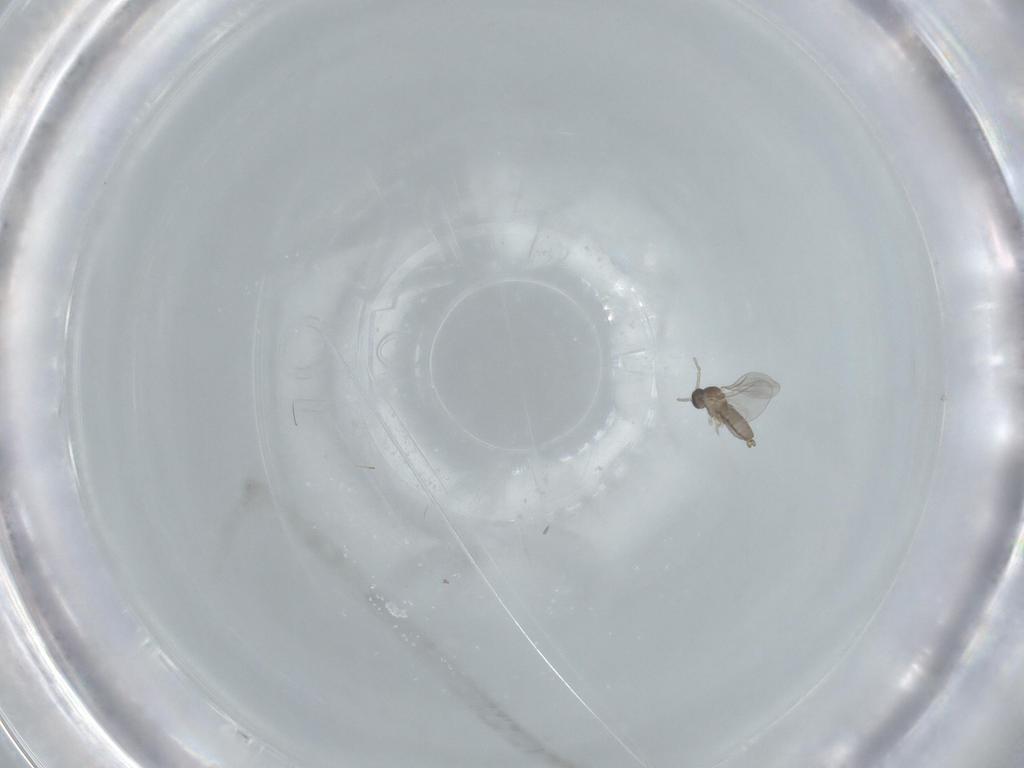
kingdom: Animalia
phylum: Arthropoda
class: Insecta
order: Diptera
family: Cecidomyiidae
